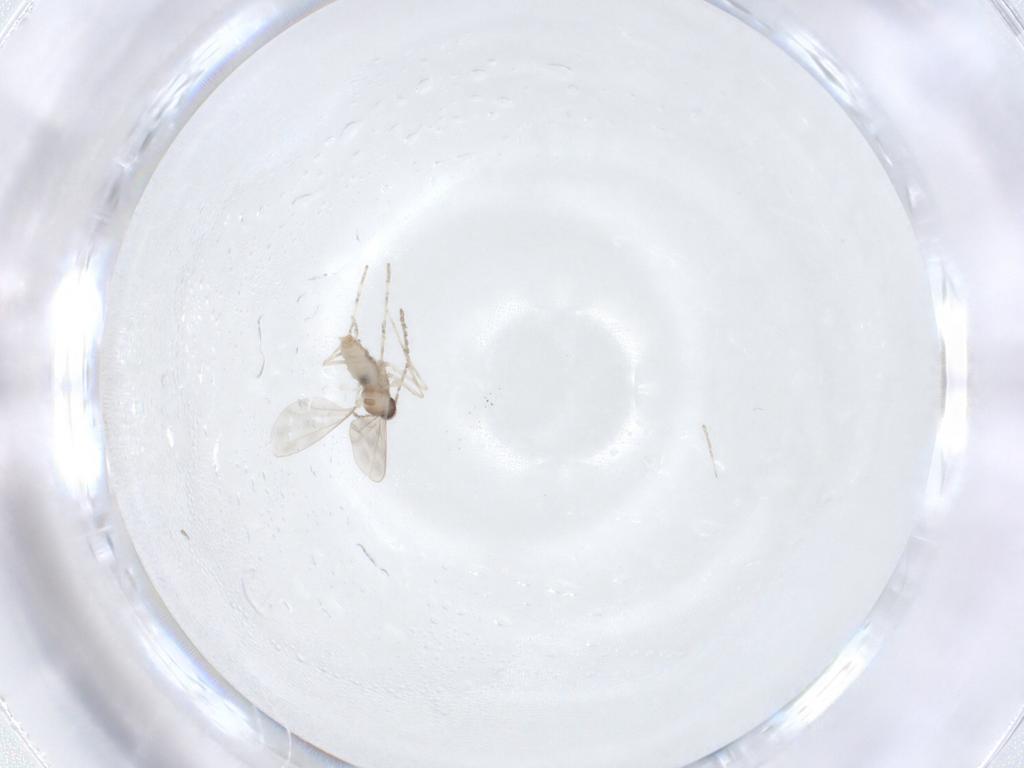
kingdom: Animalia
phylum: Arthropoda
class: Insecta
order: Diptera
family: Cecidomyiidae
